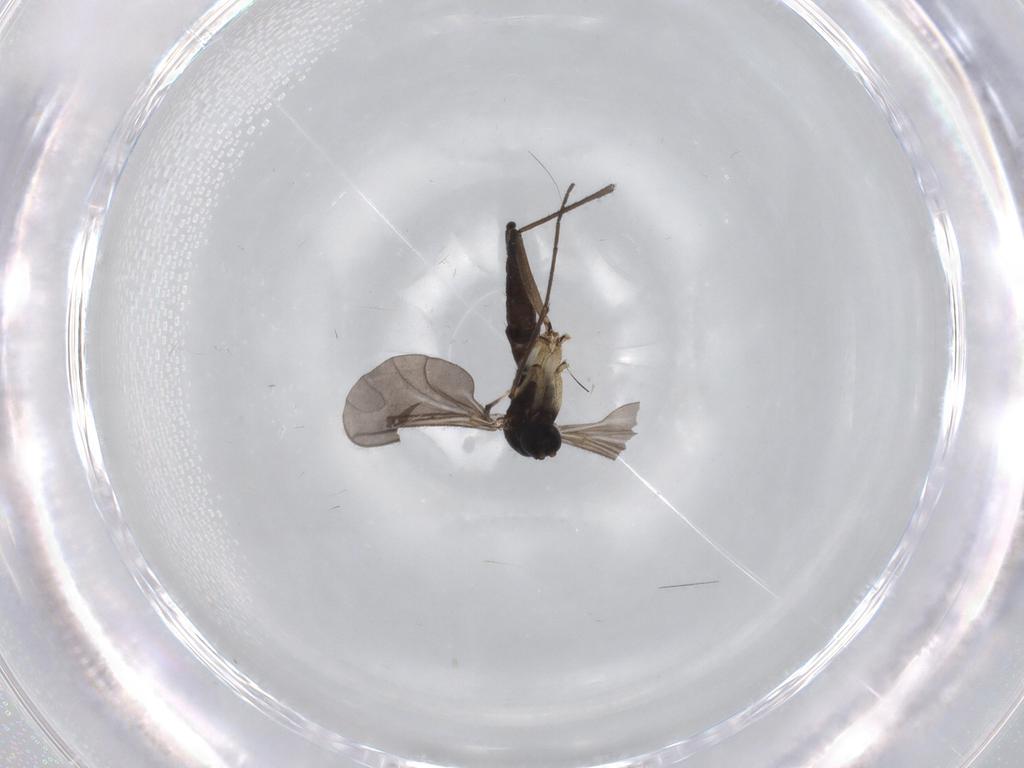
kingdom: Animalia
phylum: Arthropoda
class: Insecta
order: Diptera
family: Sciaridae
